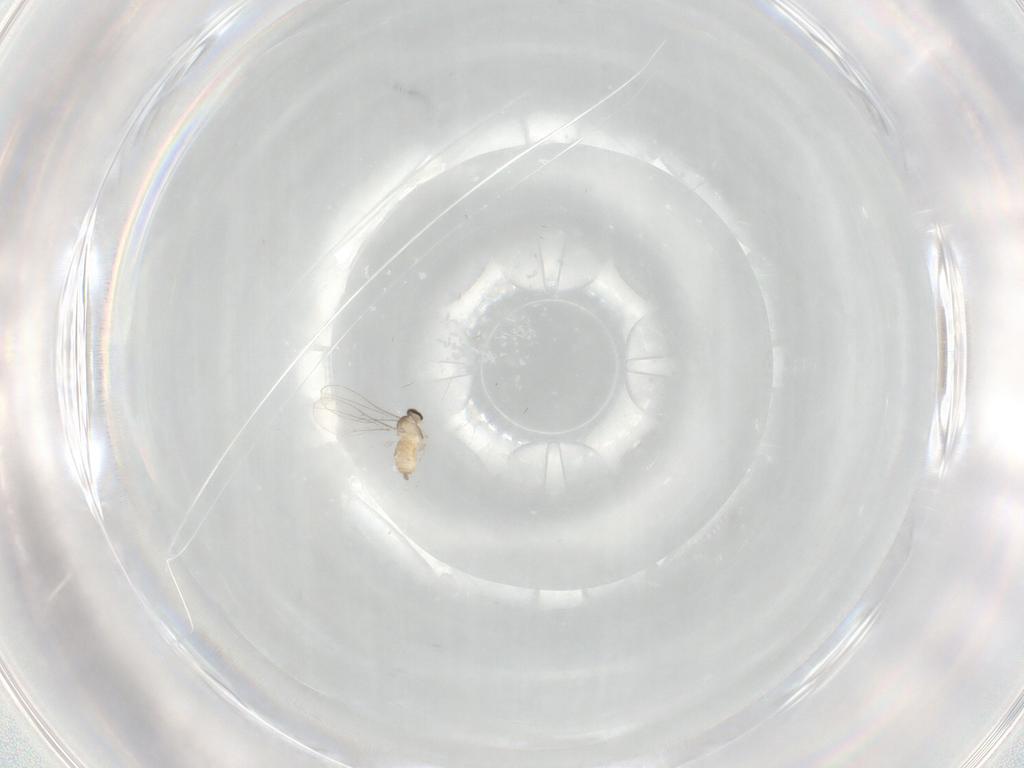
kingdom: Animalia
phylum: Arthropoda
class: Insecta
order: Diptera
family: Cecidomyiidae
